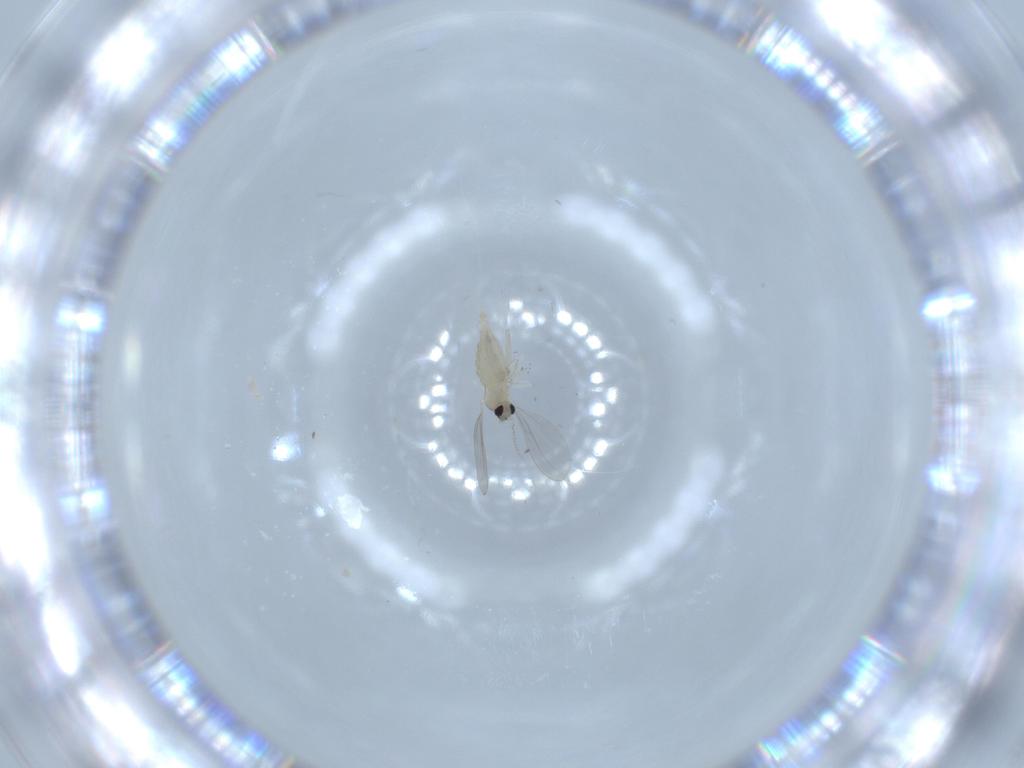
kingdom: Animalia
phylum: Arthropoda
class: Insecta
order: Diptera
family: Cecidomyiidae
